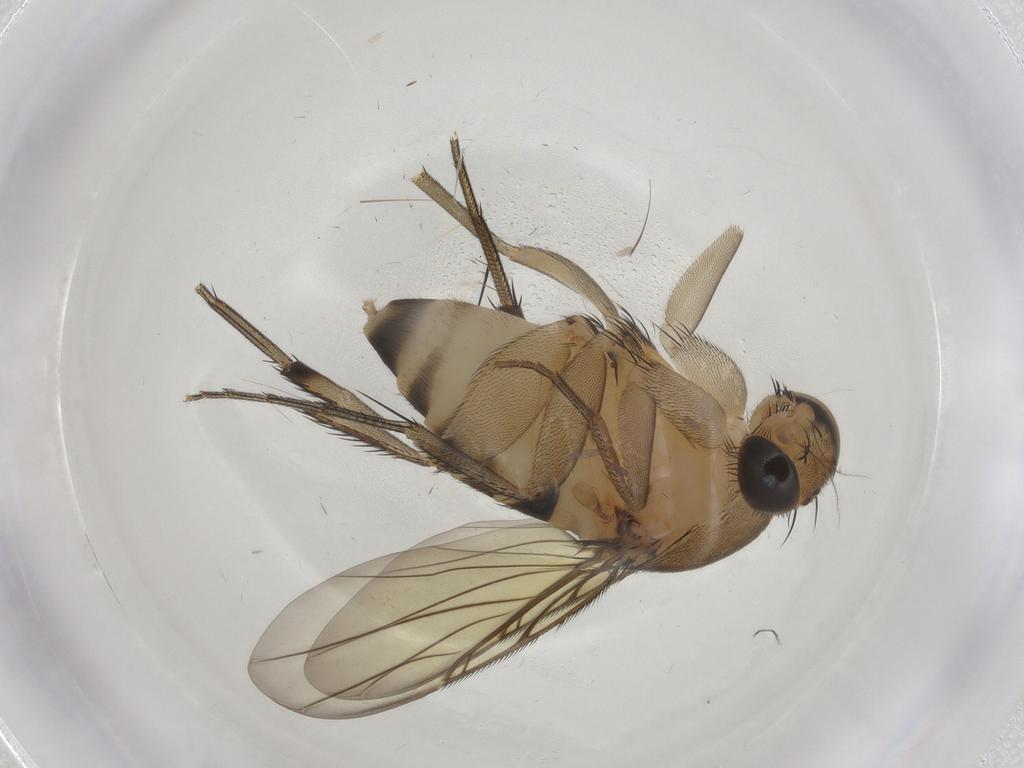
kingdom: Animalia
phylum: Arthropoda
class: Insecta
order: Diptera
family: Phoridae
